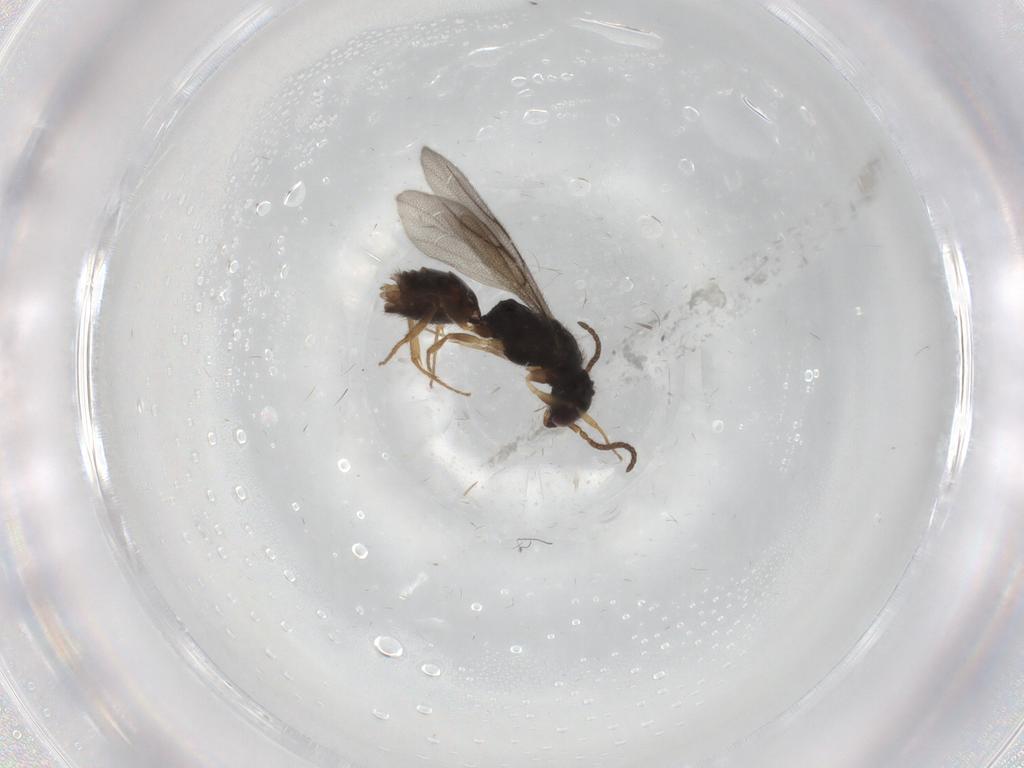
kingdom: Animalia
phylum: Arthropoda
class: Insecta
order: Hymenoptera
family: Bethylidae
